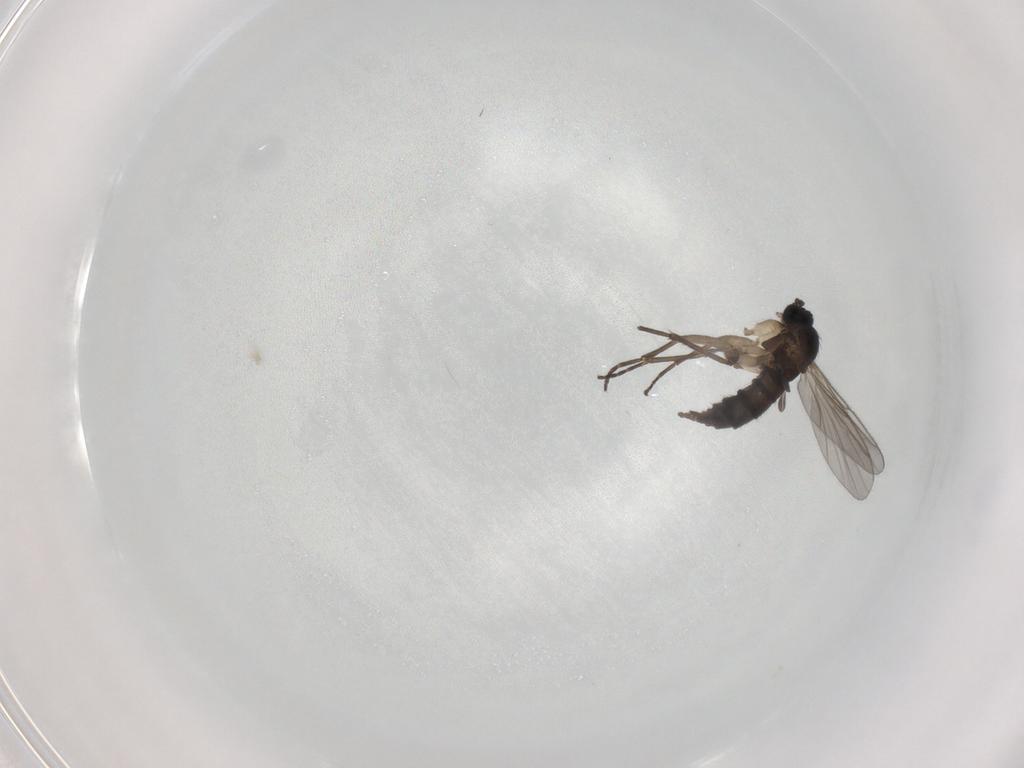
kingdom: Animalia
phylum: Arthropoda
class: Insecta
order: Diptera
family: Sciaridae
